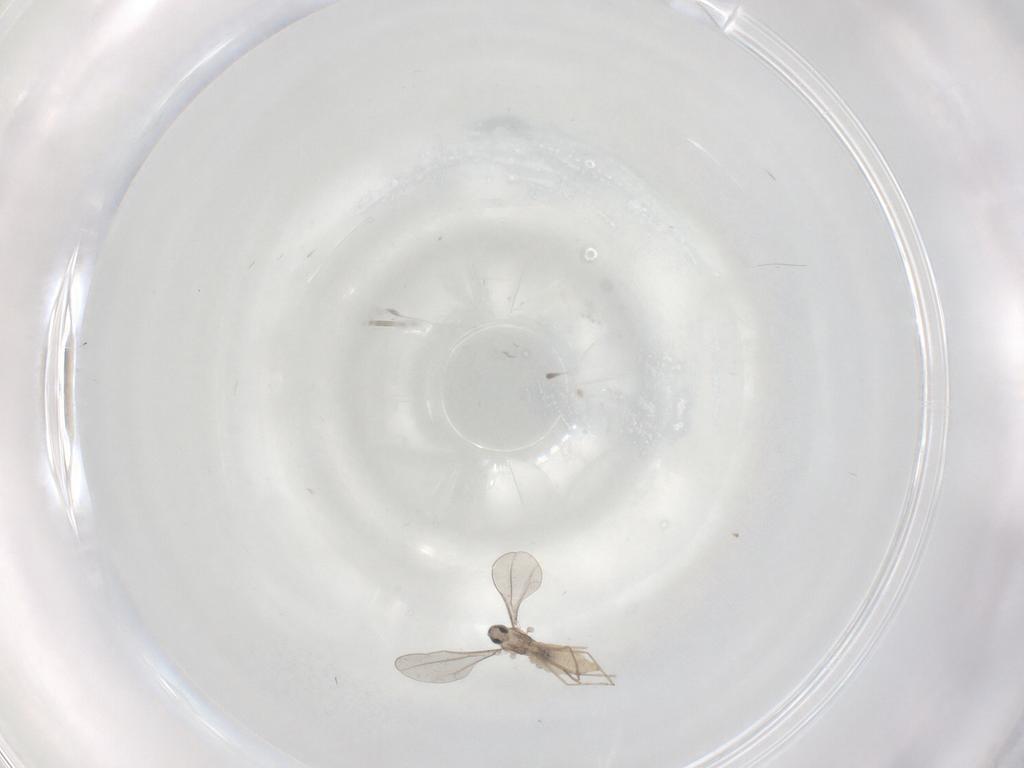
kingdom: Animalia
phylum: Arthropoda
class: Insecta
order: Diptera
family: Cecidomyiidae
